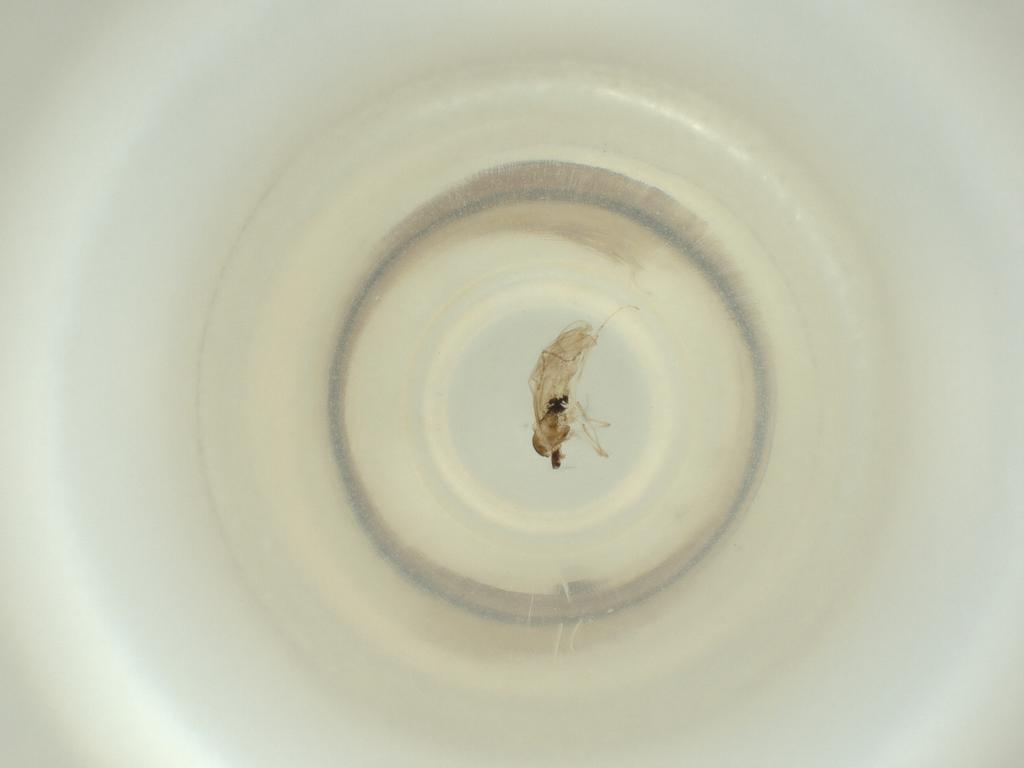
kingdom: Animalia
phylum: Arthropoda
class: Insecta
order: Diptera
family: Cecidomyiidae
